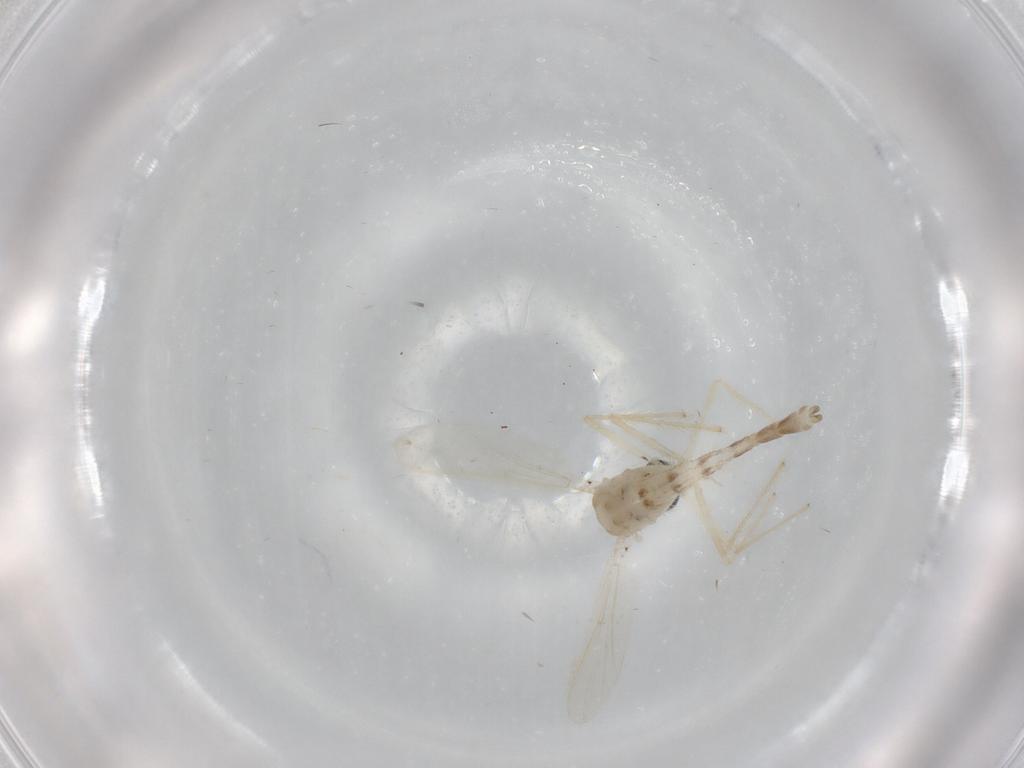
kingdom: Animalia
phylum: Arthropoda
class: Insecta
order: Diptera
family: Chironomidae
